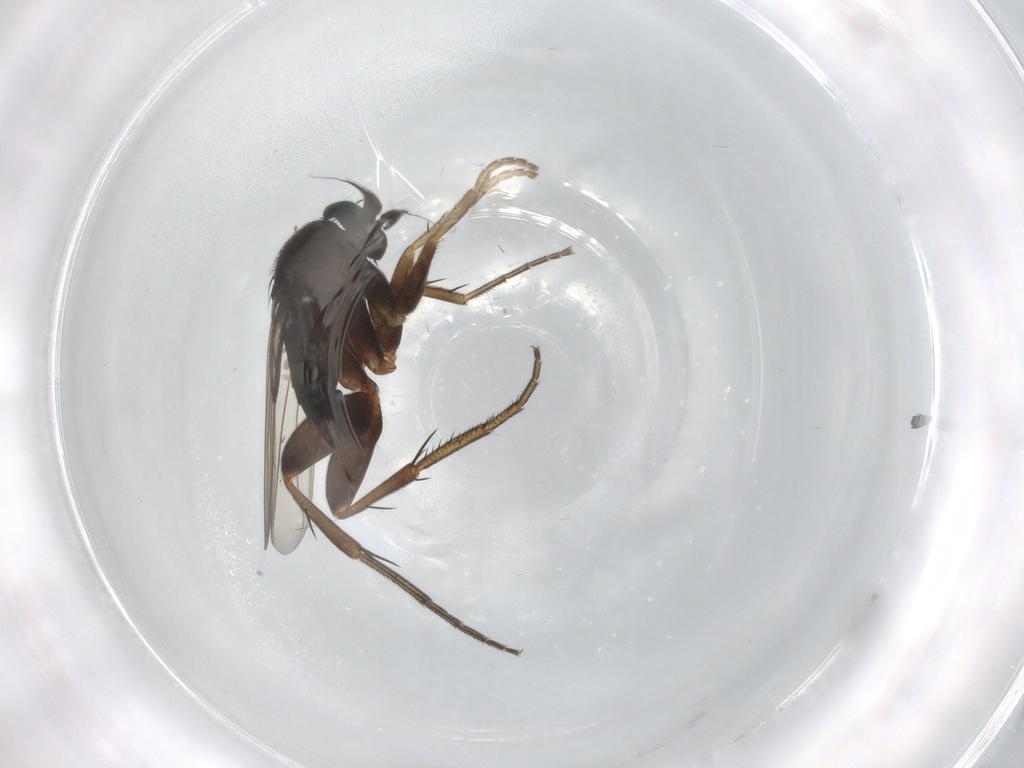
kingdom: Animalia
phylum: Arthropoda
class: Insecta
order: Diptera
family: Phoridae
